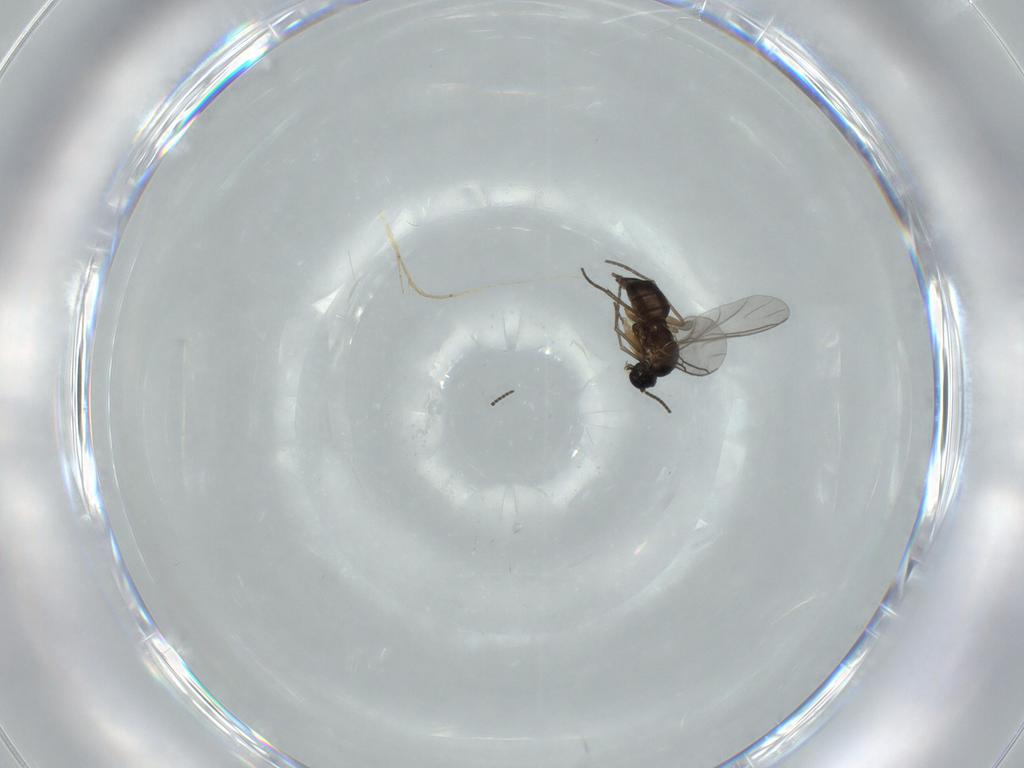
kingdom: Animalia
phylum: Arthropoda
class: Insecta
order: Diptera
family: Sciaridae
